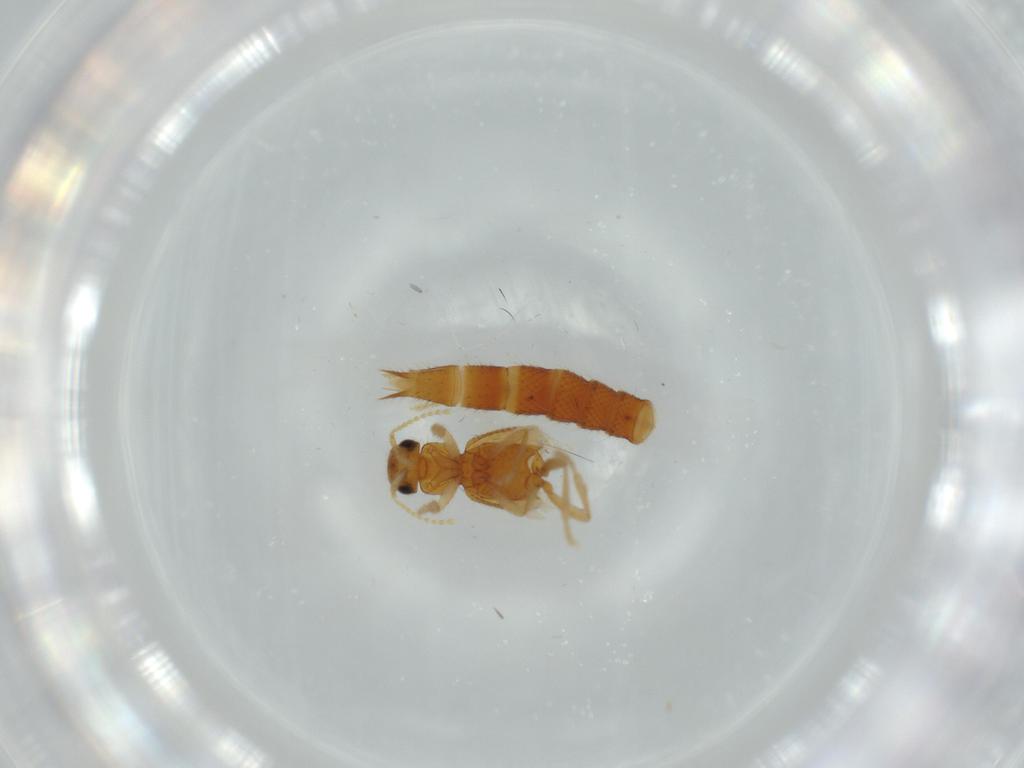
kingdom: Animalia
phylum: Arthropoda
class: Insecta
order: Coleoptera
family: Staphylinidae
